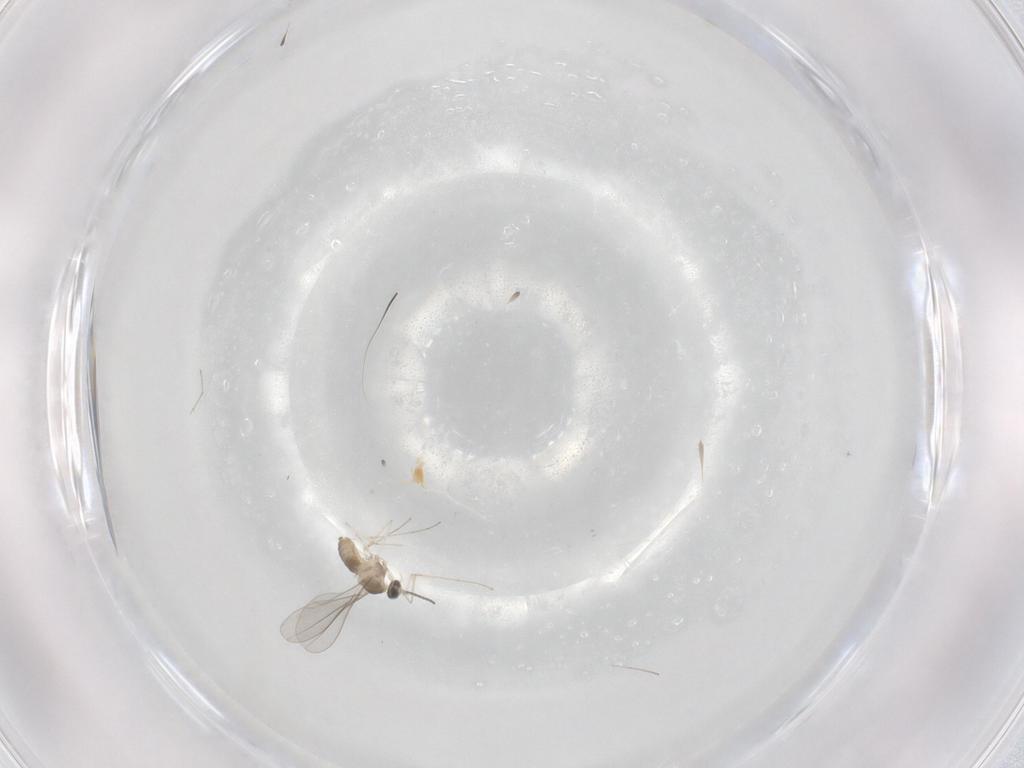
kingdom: Animalia
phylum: Arthropoda
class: Insecta
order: Diptera
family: Cecidomyiidae
